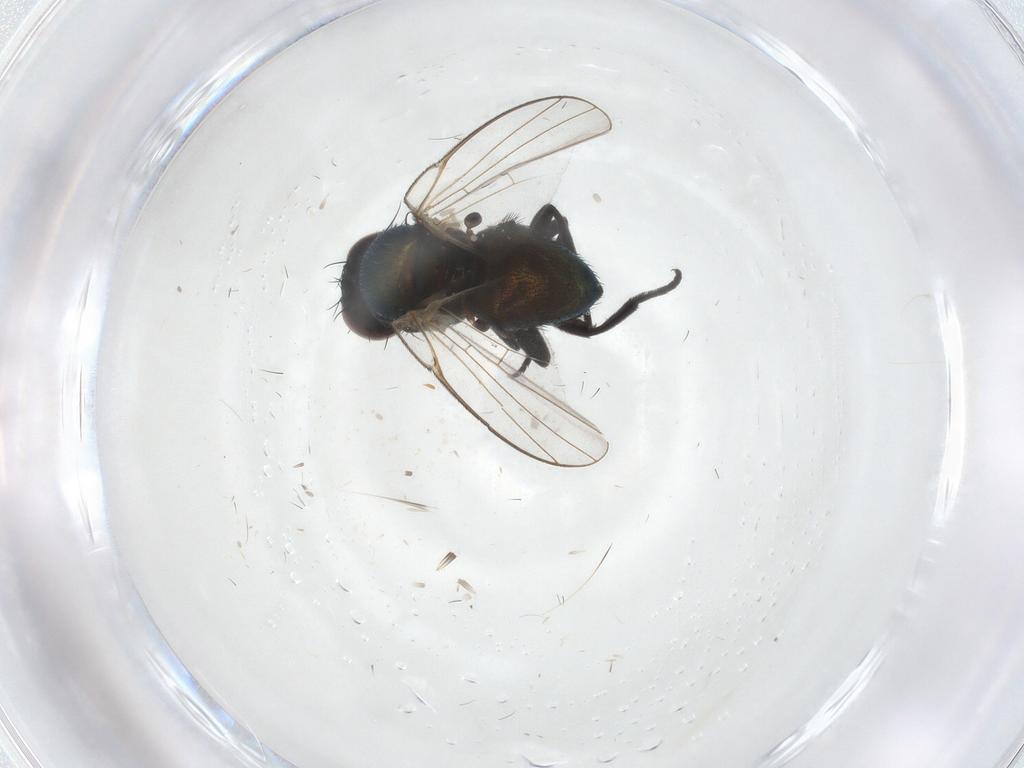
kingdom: Animalia
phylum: Arthropoda
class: Insecta
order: Diptera
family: Agromyzidae
